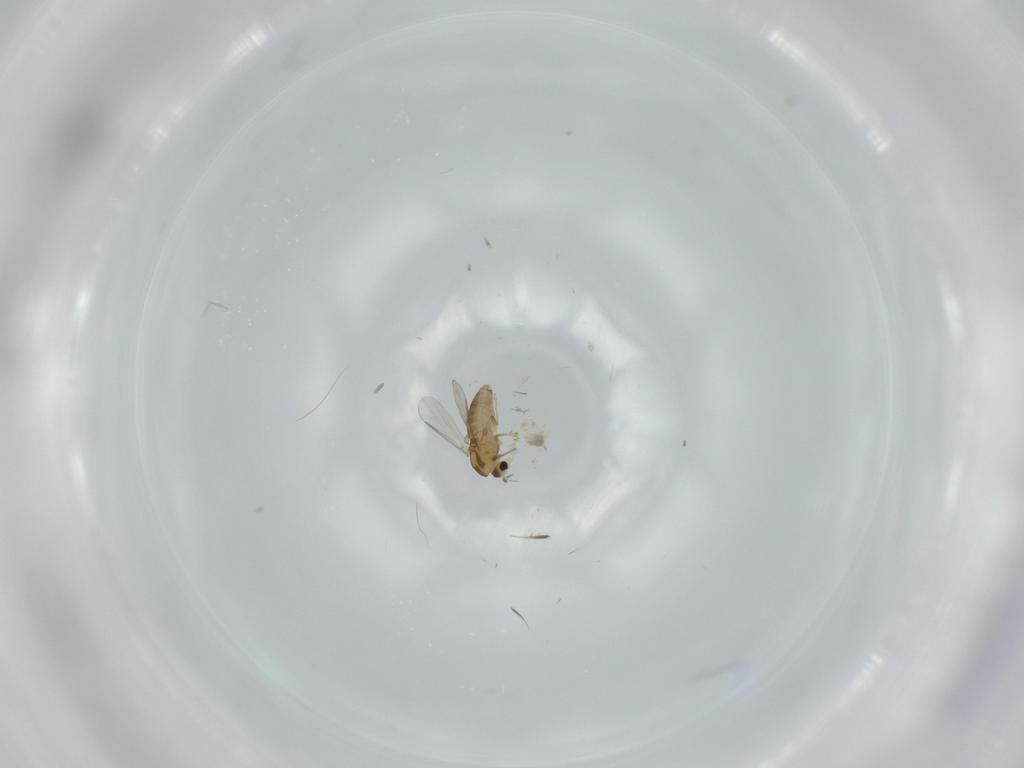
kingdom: Animalia
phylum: Arthropoda
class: Insecta
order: Diptera
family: Chironomidae
